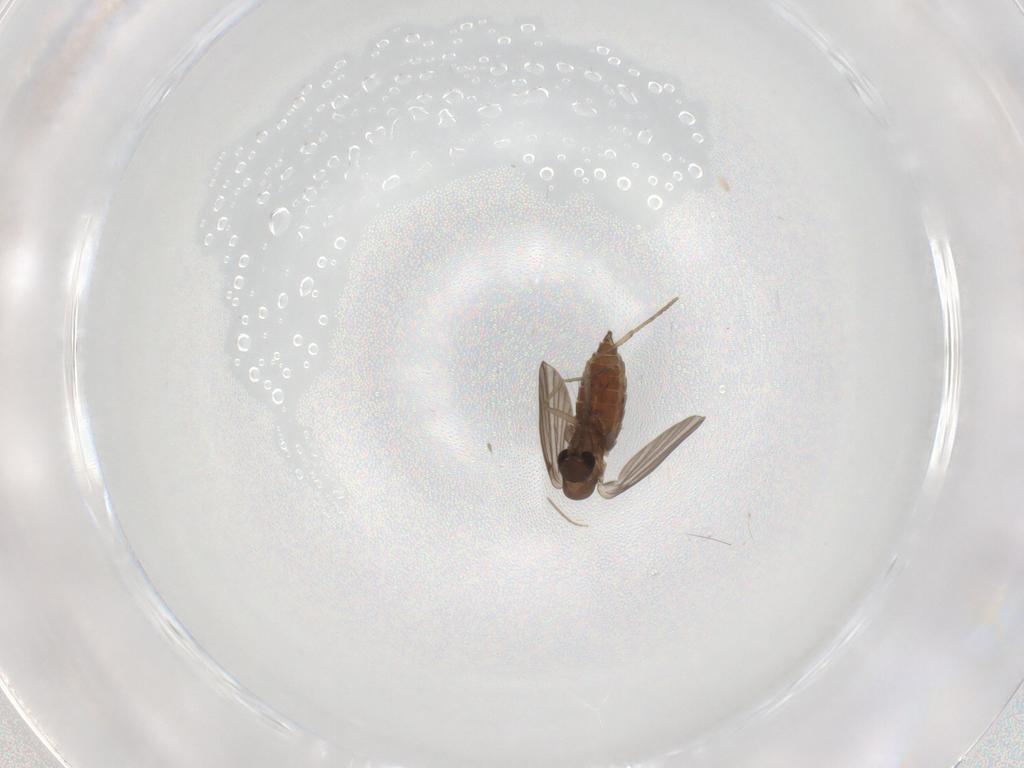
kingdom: Animalia
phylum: Arthropoda
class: Insecta
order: Diptera
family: Chironomidae
